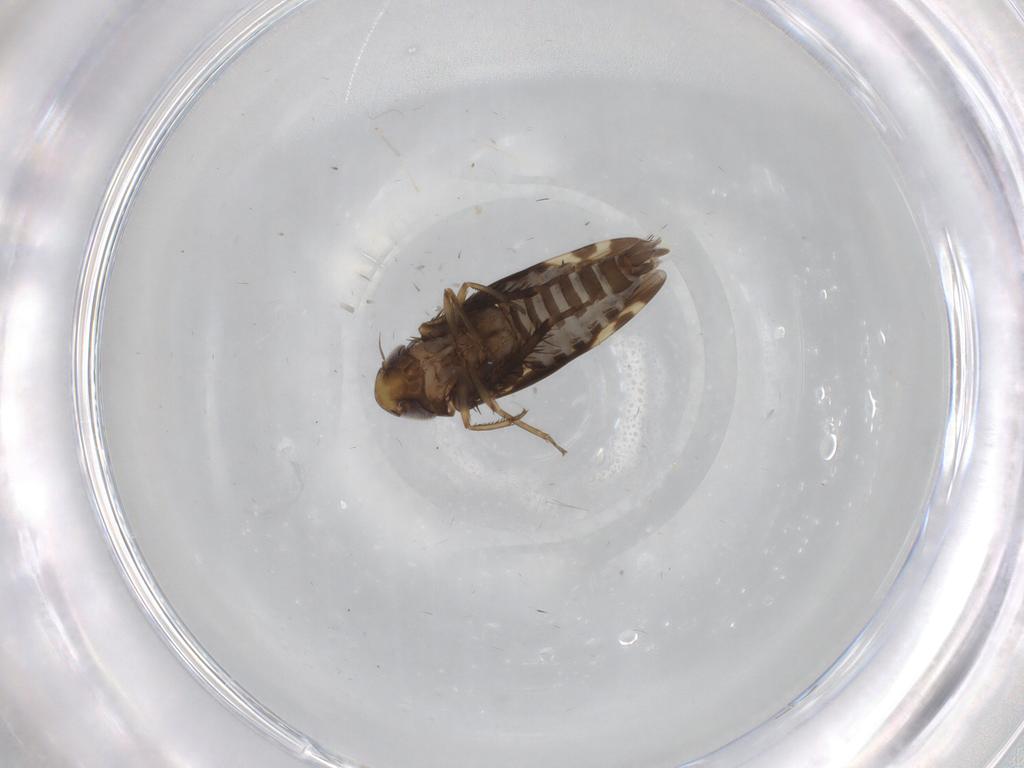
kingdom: Animalia
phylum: Arthropoda
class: Insecta
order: Hemiptera
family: Cicadellidae
